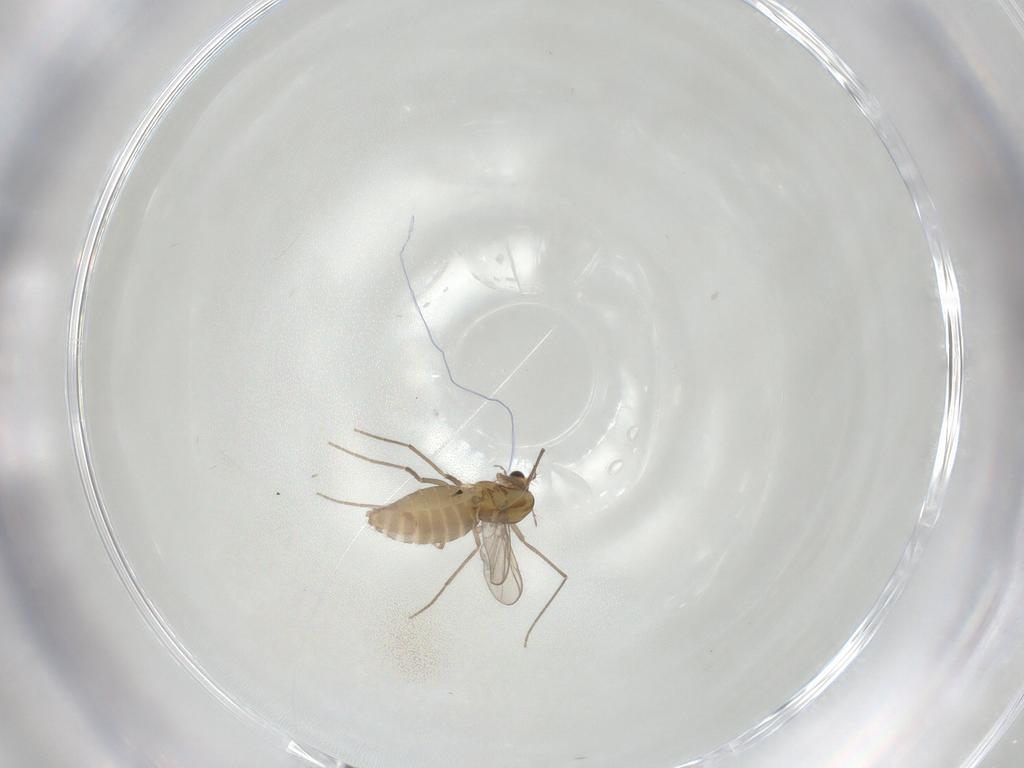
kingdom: Animalia
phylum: Arthropoda
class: Insecta
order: Diptera
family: Chironomidae
